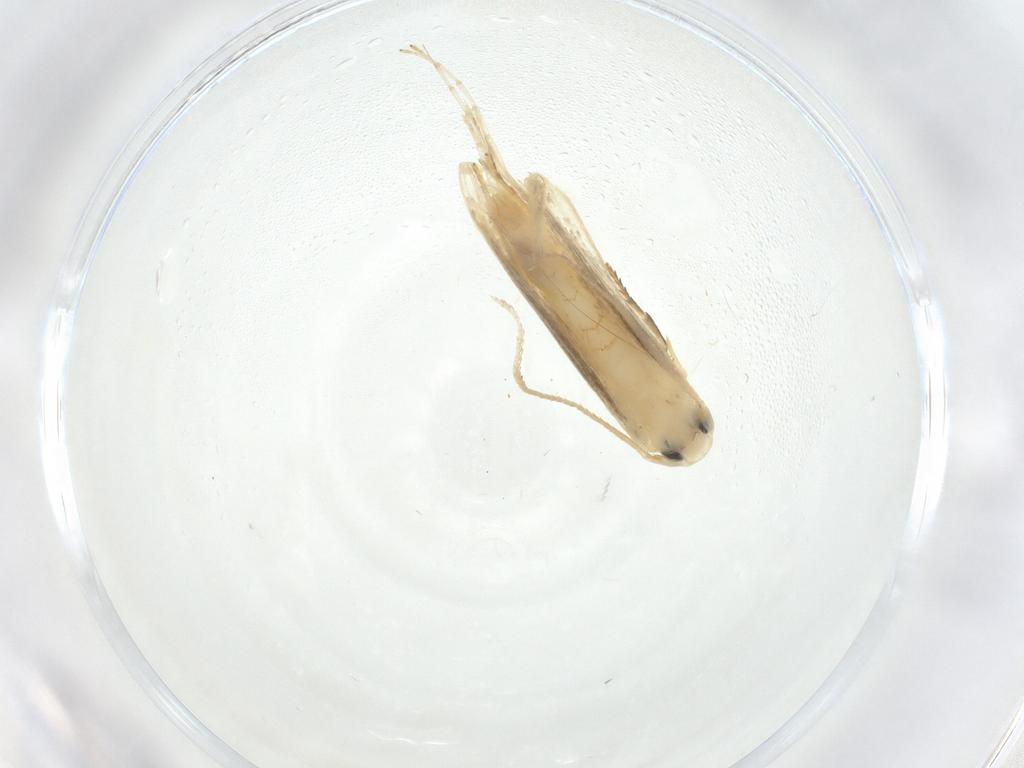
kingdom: Animalia
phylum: Arthropoda
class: Insecta
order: Lepidoptera
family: Lyonetiidae
